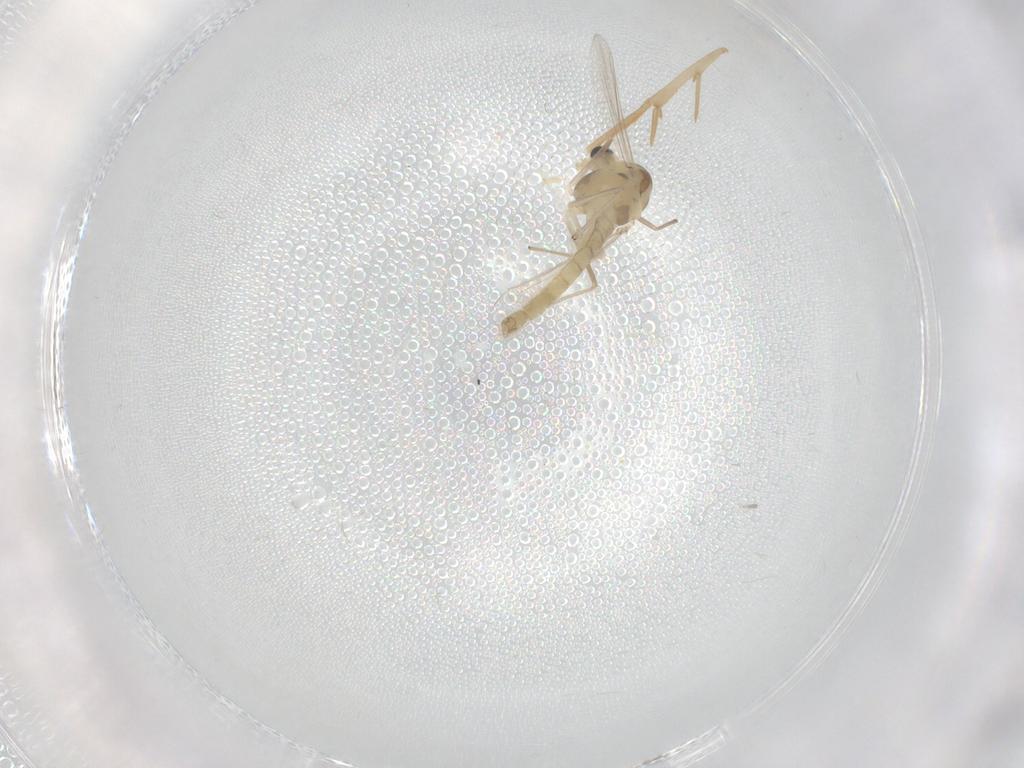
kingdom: Animalia
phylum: Arthropoda
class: Insecta
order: Diptera
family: Chironomidae
